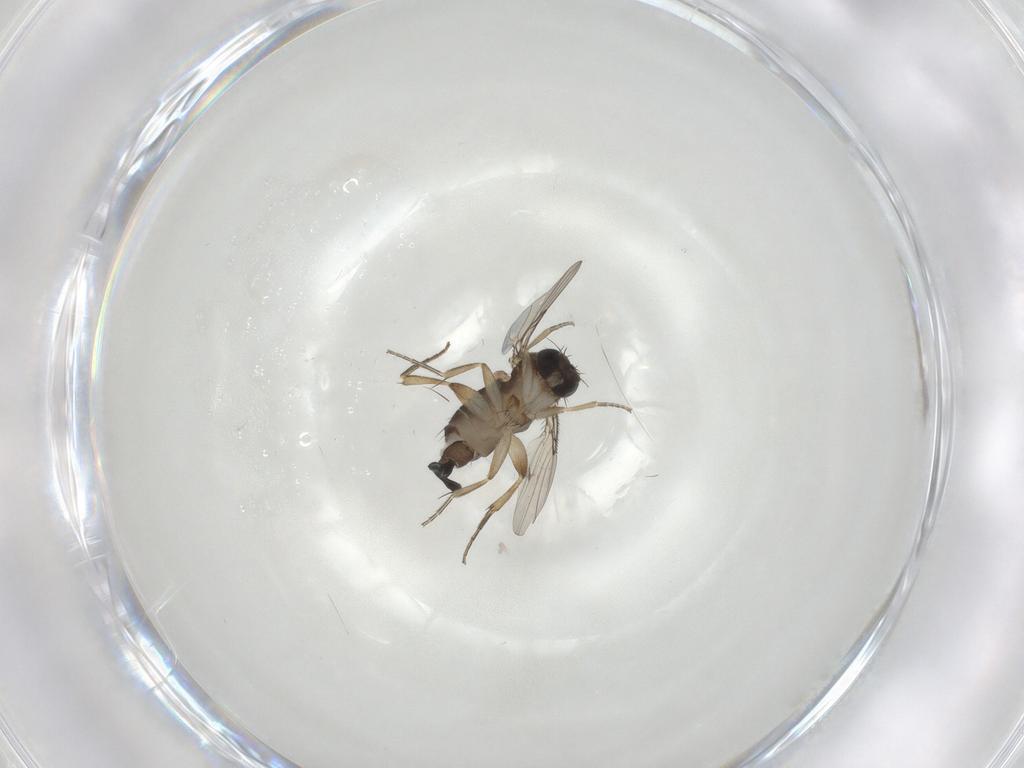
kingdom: Animalia
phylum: Arthropoda
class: Insecta
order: Diptera
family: Phoridae
